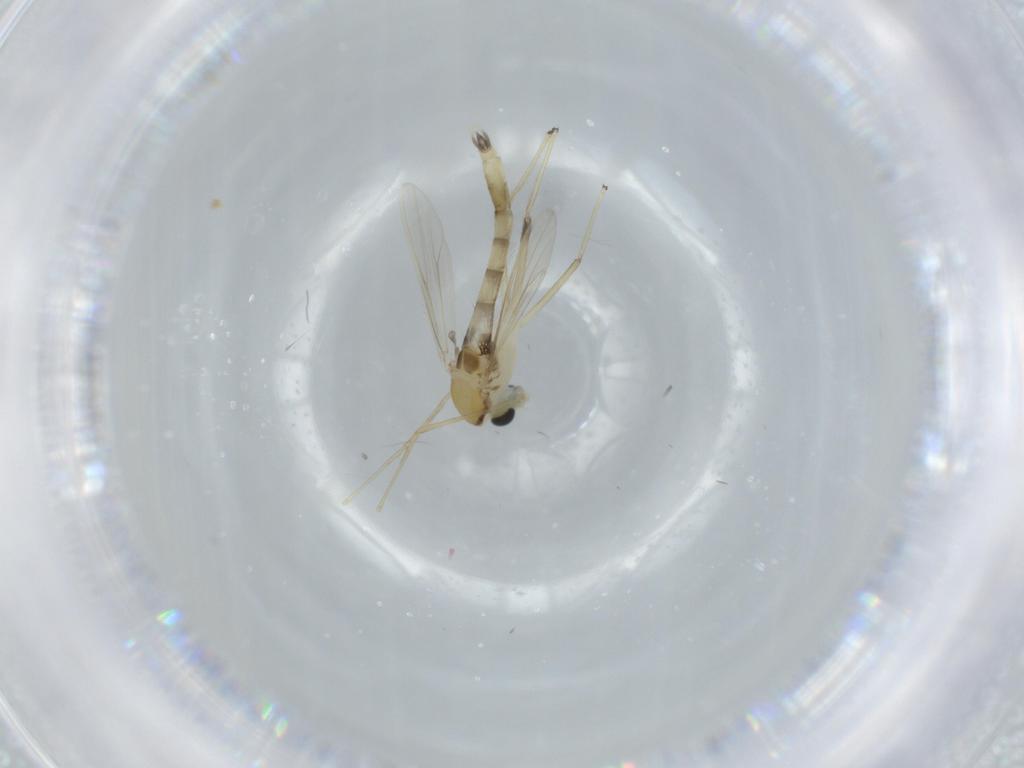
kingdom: Animalia
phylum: Arthropoda
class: Insecta
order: Diptera
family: Chironomidae
